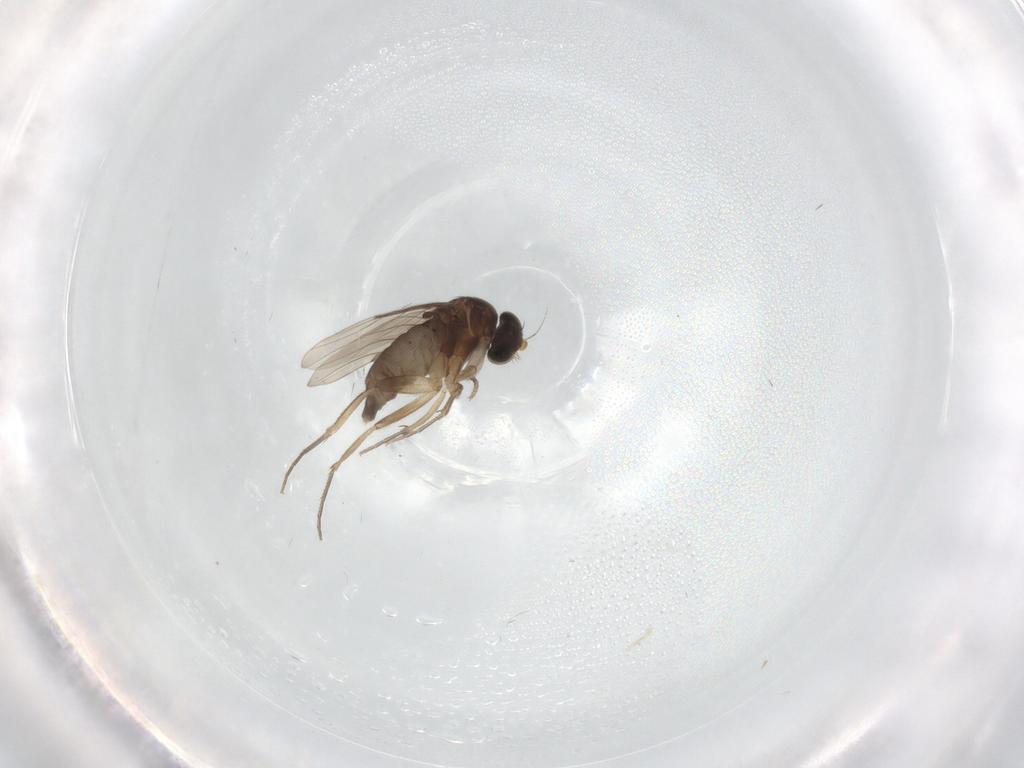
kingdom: Animalia
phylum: Arthropoda
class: Insecta
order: Diptera
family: Phoridae
